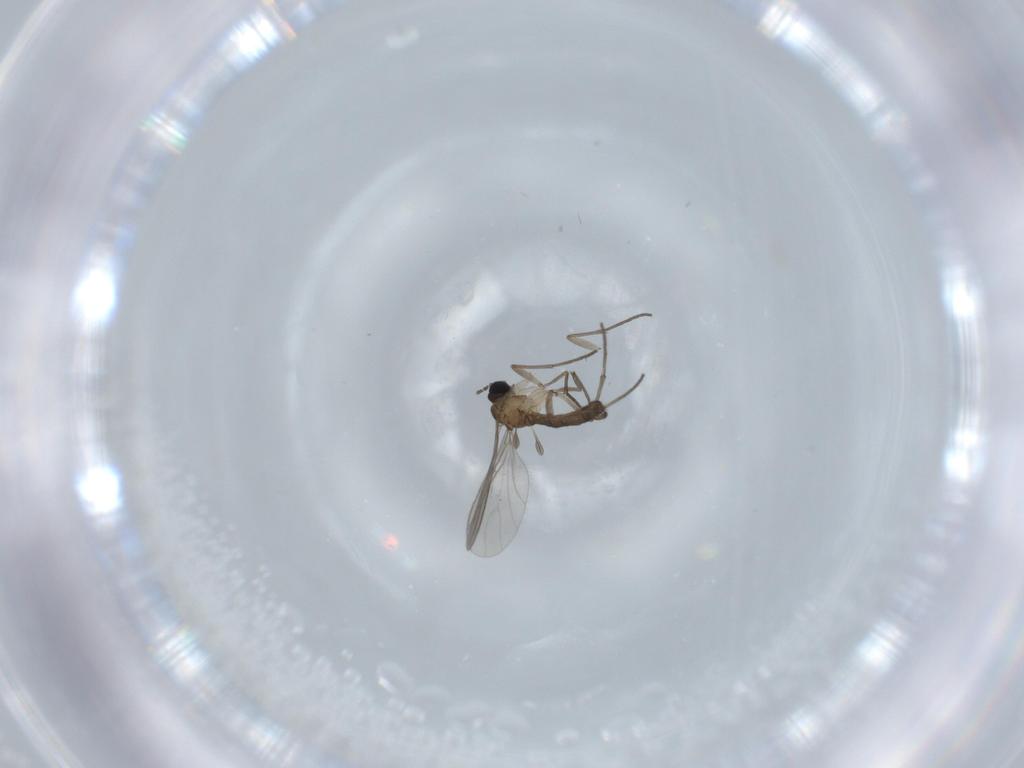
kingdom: Animalia
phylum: Arthropoda
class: Insecta
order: Diptera
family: Sciaridae
